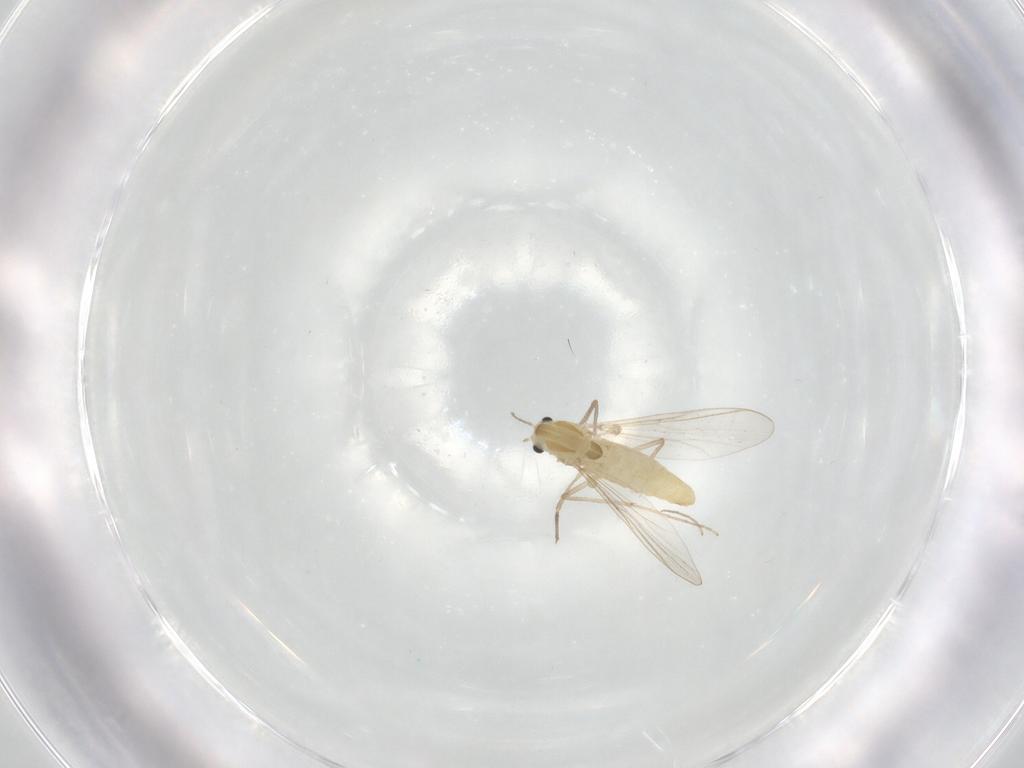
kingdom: Animalia
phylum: Arthropoda
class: Insecta
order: Diptera
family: Chironomidae
